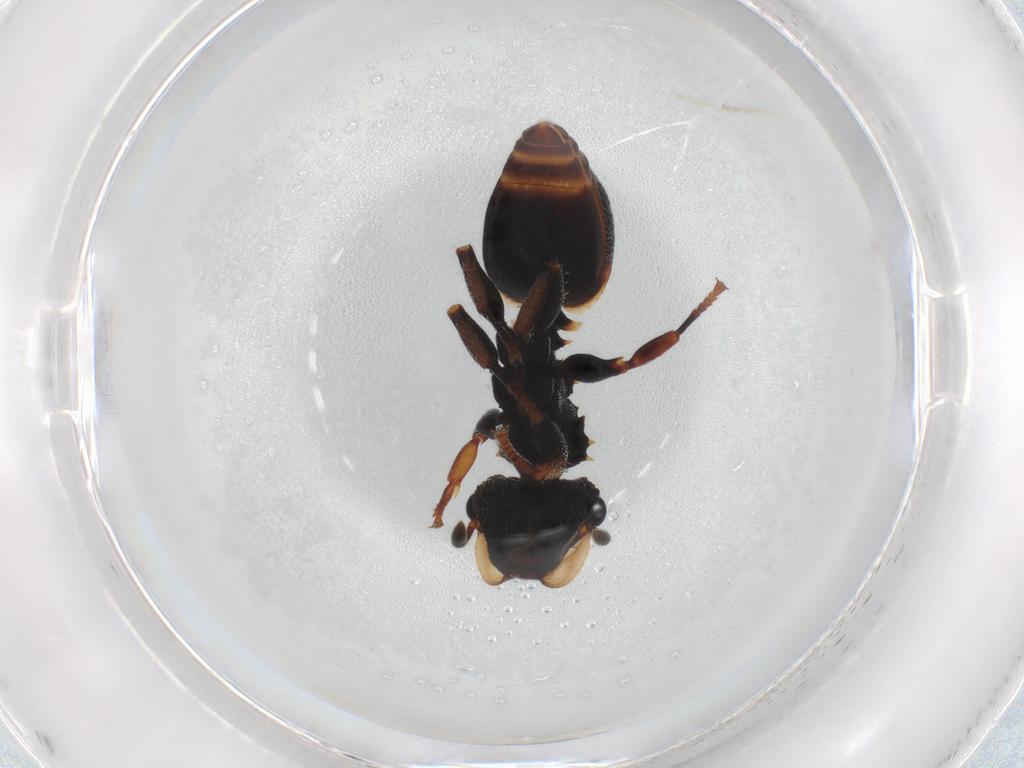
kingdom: Animalia
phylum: Arthropoda
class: Insecta
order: Hymenoptera
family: Formicidae
